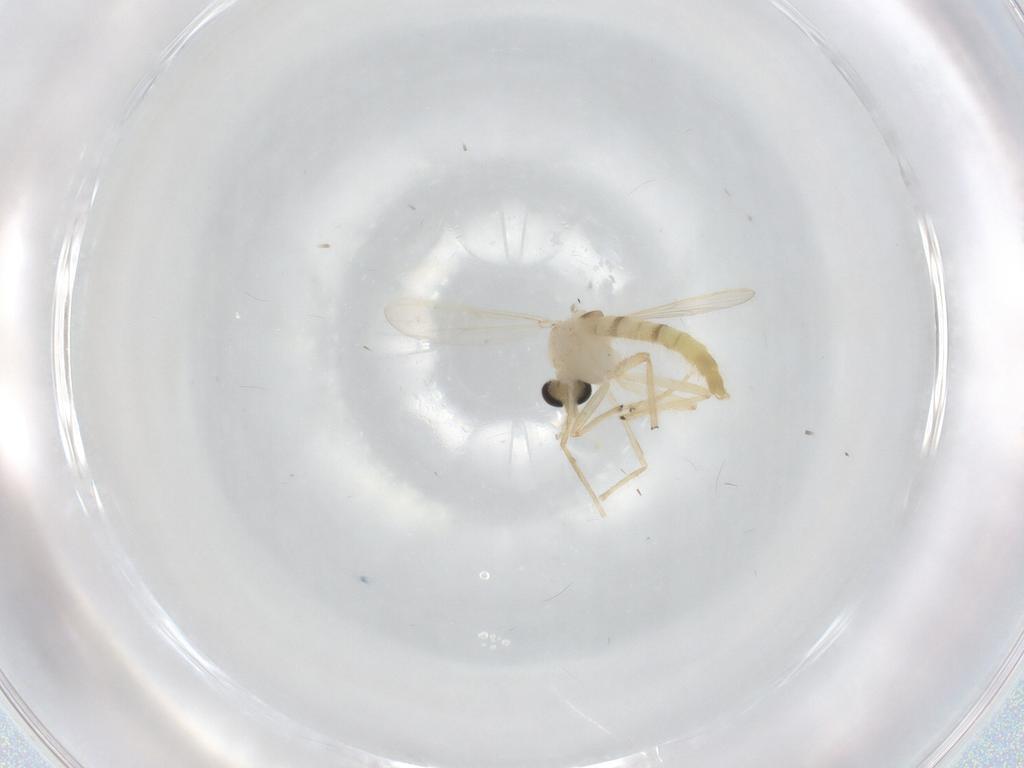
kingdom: Animalia
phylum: Arthropoda
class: Insecta
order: Diptera
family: Chironomidae
